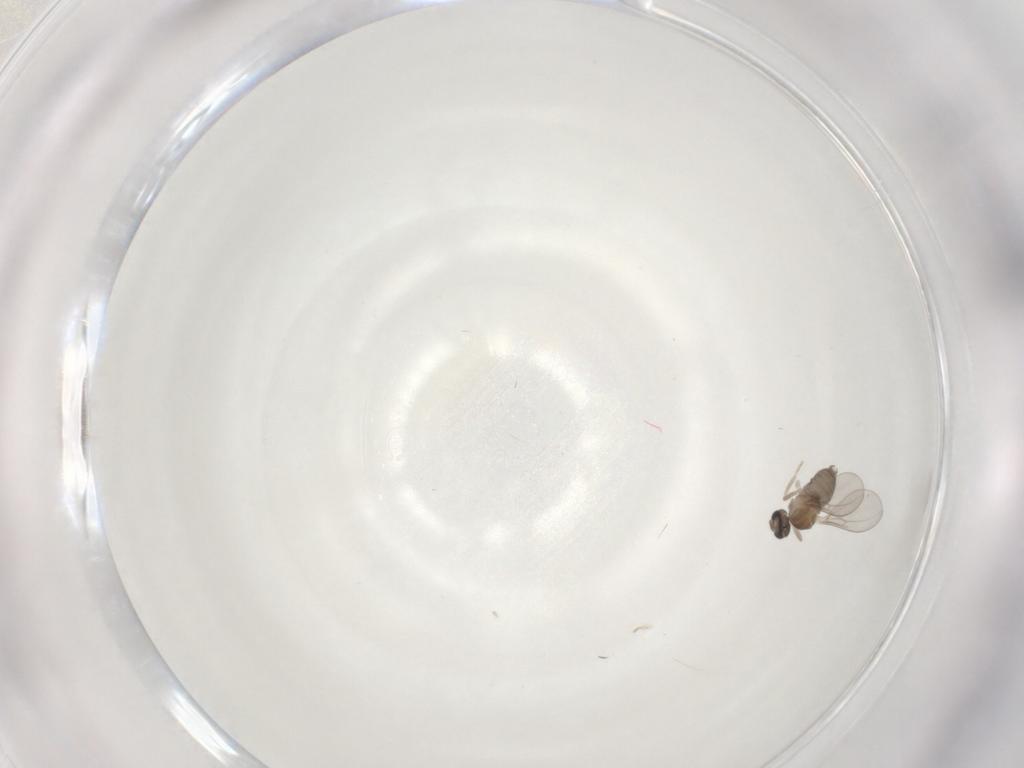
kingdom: Animalia
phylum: Arthropoda
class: Insecta
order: Diptera
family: Cecidomyiidae
